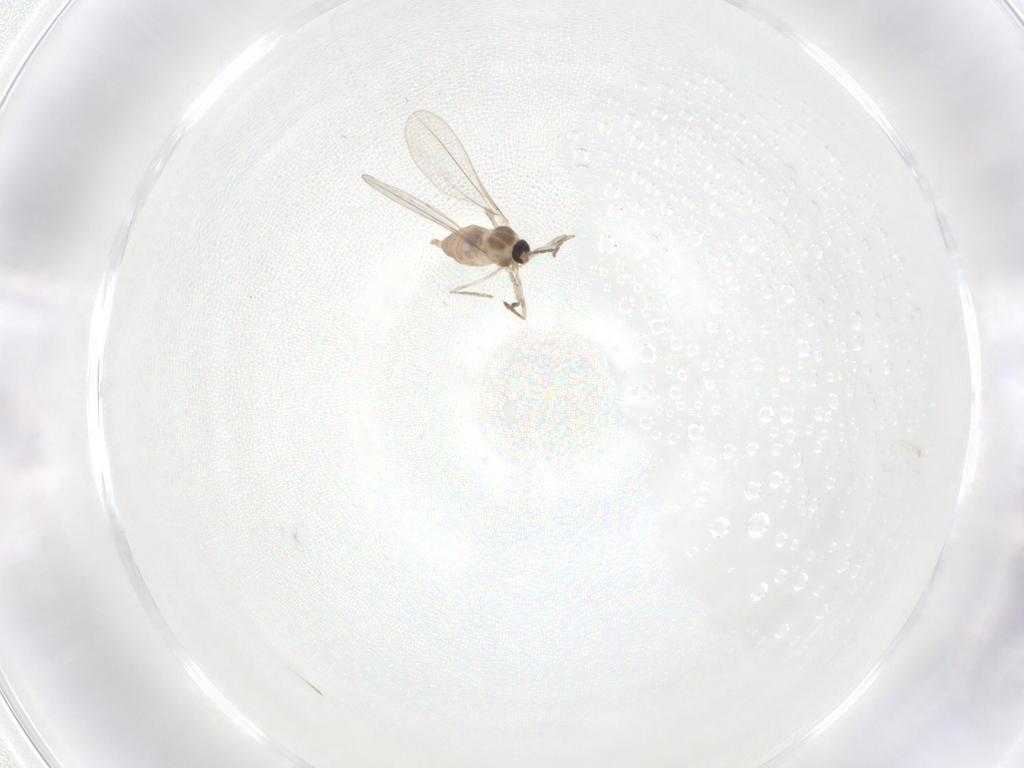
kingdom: Animalia
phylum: Arthropoda
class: Insecta
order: Diptera
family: Cecidomyiidae
